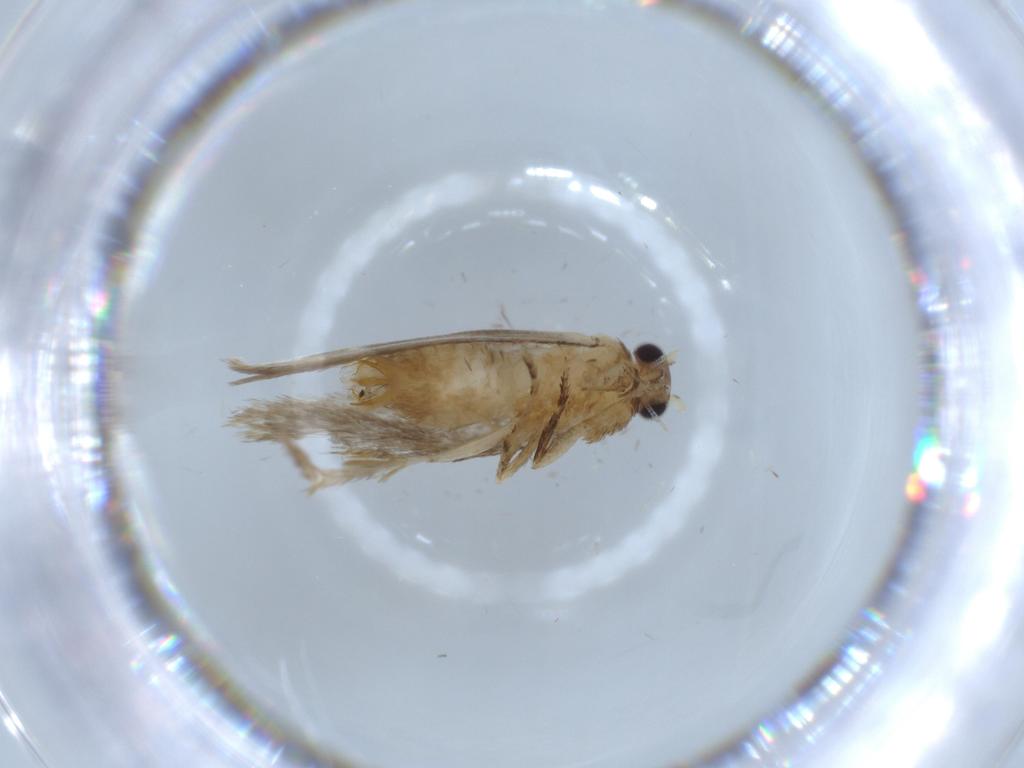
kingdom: Animalia
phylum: Arthropoda
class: Insecta
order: Lepidoptera
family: Tineidae
